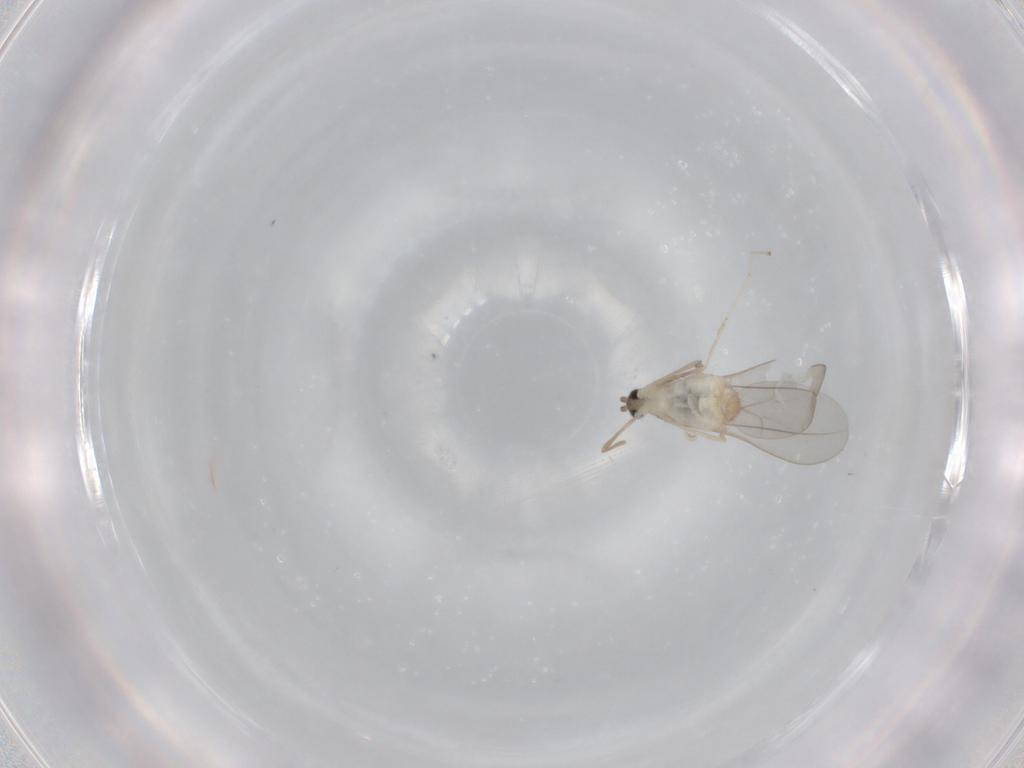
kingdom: Animalia
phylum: Arthropoda
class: Insecta
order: Diptera
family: Cecidomyiidae
